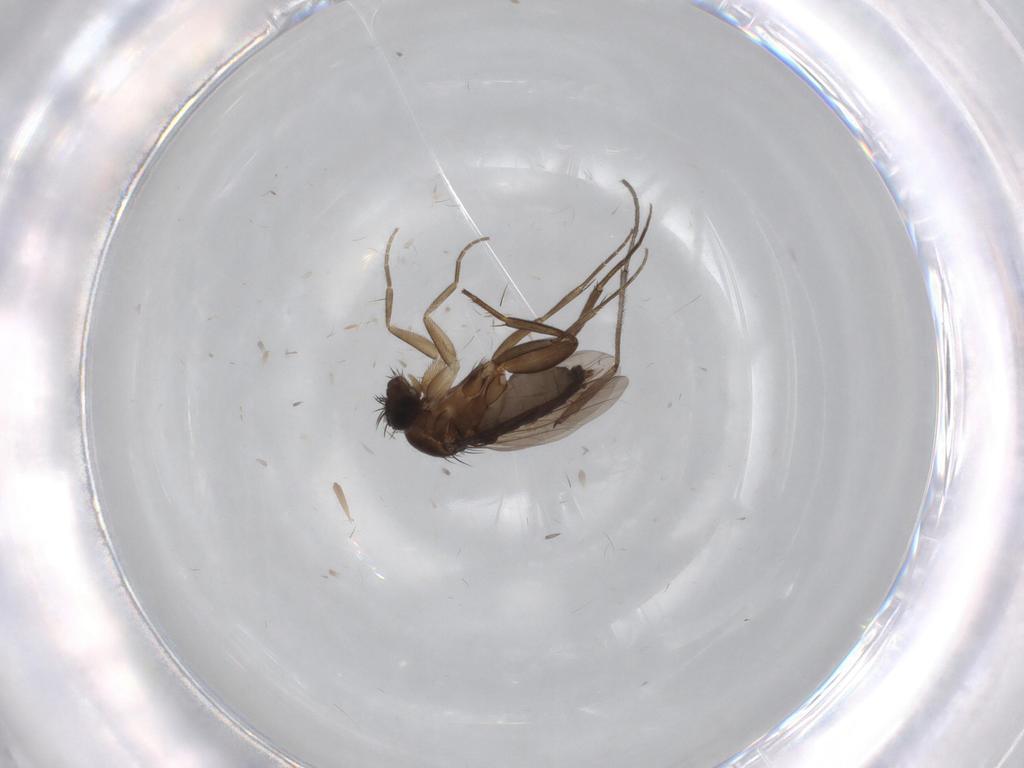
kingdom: Animalia
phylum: Arthropoda
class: Insecta
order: Diptera
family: Phoridae
